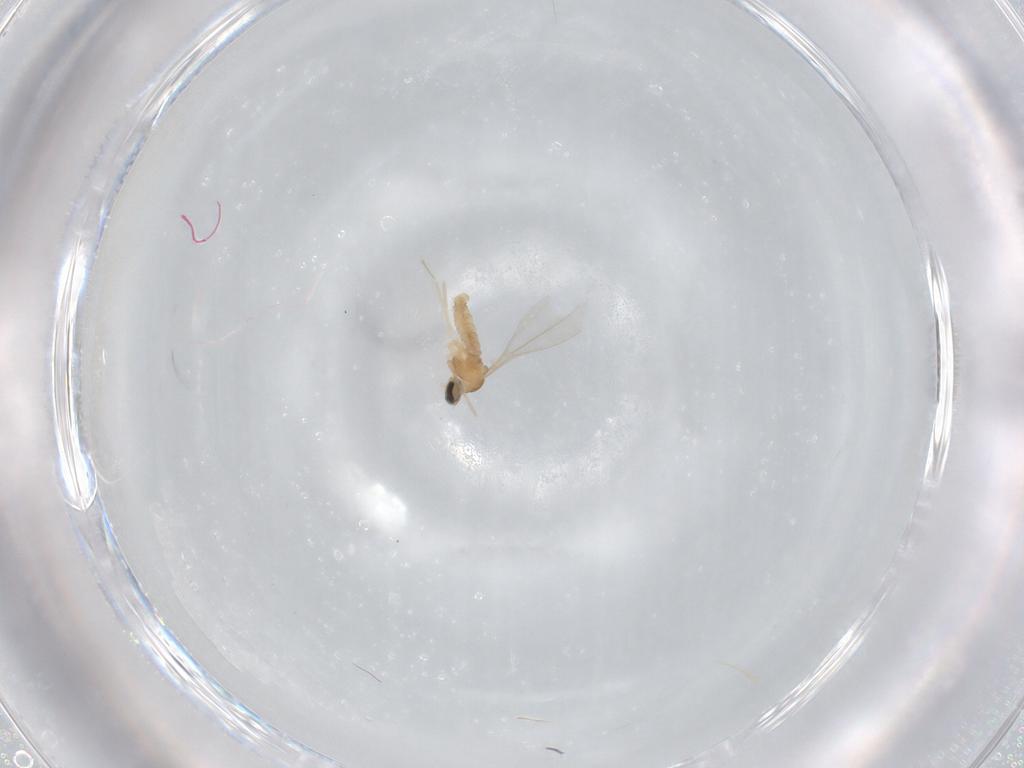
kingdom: Animalia
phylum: Arthropoda
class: Insecta
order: Diptera
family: Cecidomyiidae
